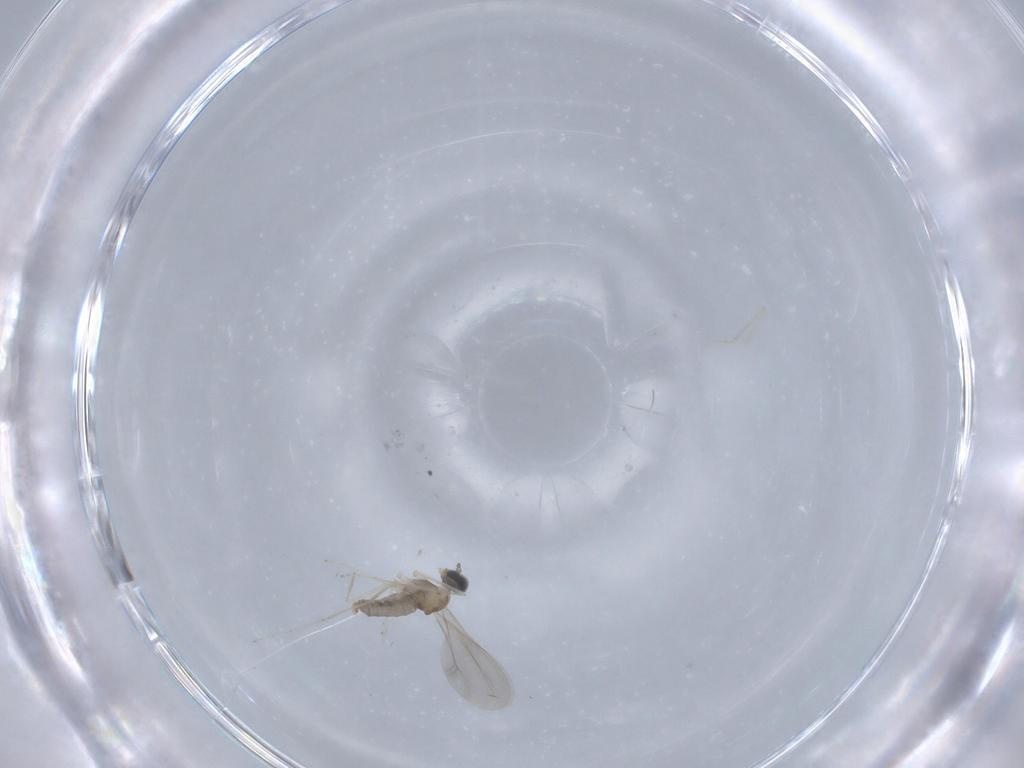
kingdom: Animalia
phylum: Arthropoda
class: Insecta
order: Diptera
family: Cecidomyiidae
